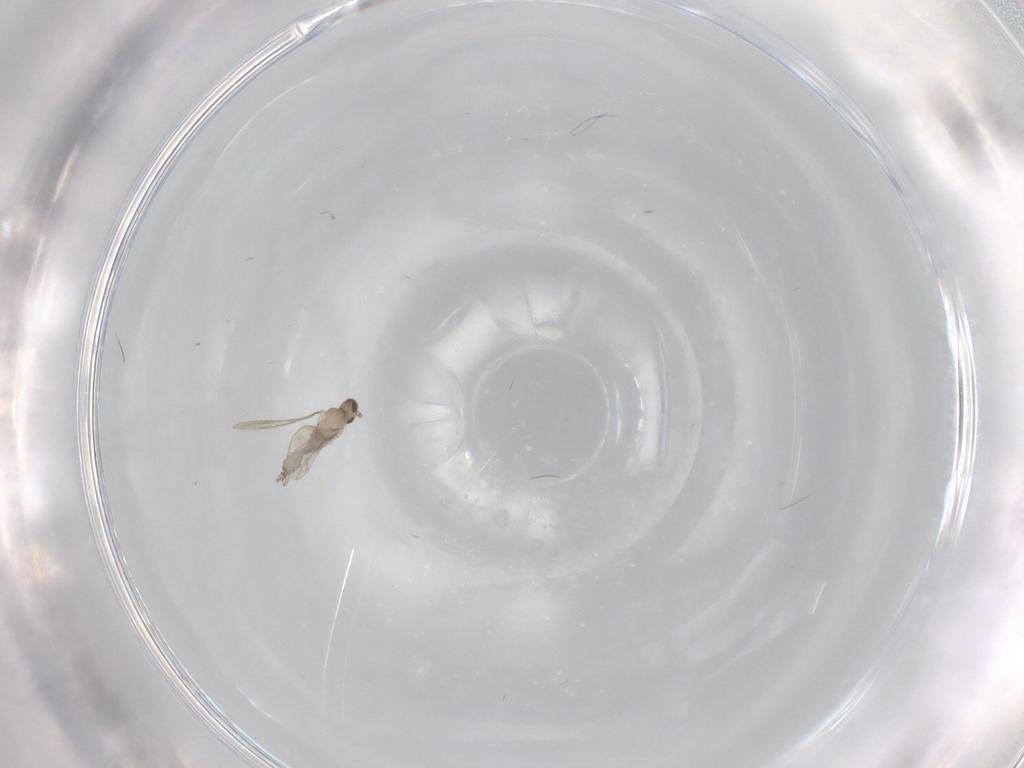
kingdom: Animalia
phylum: Arthropoda
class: Insecta
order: Diptera
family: Cecidomyiidae
